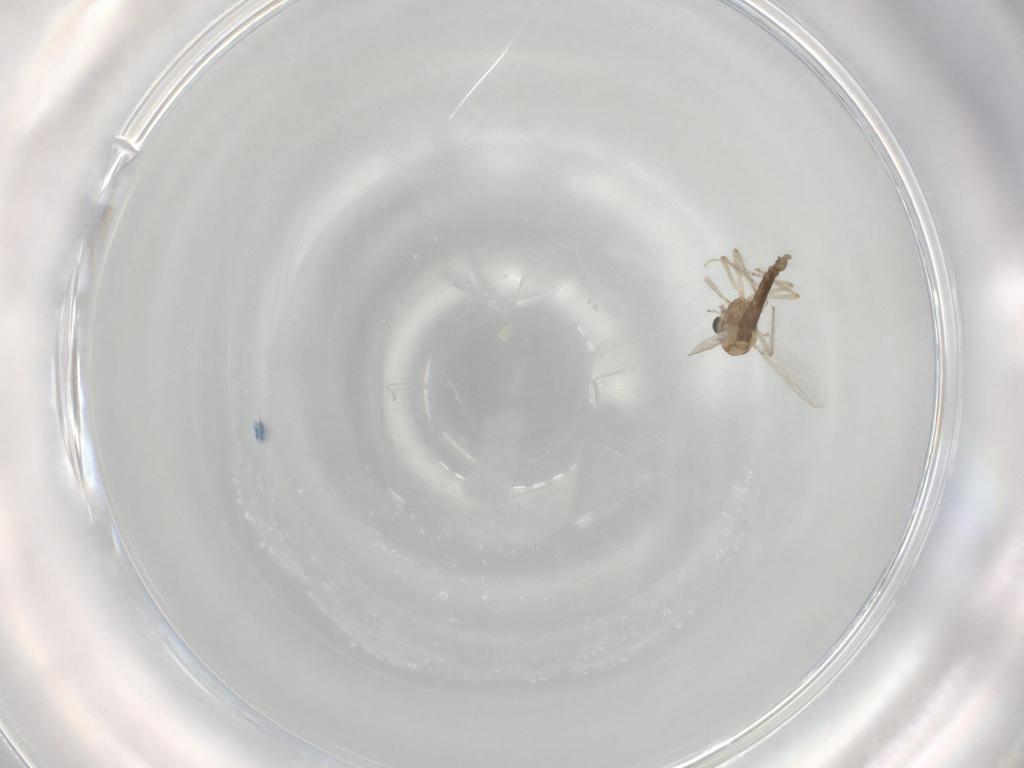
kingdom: Animalia
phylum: Arthropoda
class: Insecta
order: Diptera
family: Chironomidae
